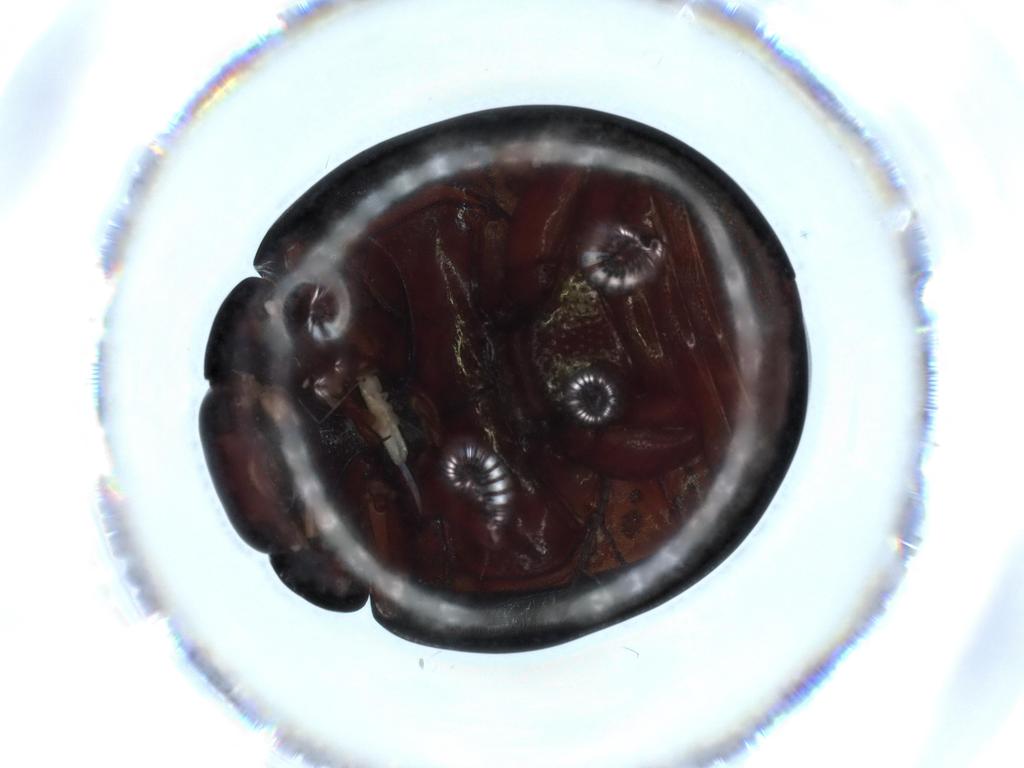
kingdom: Animalia
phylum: Arthropoda
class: Insecta
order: Coleoptera
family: Coccinellidae
